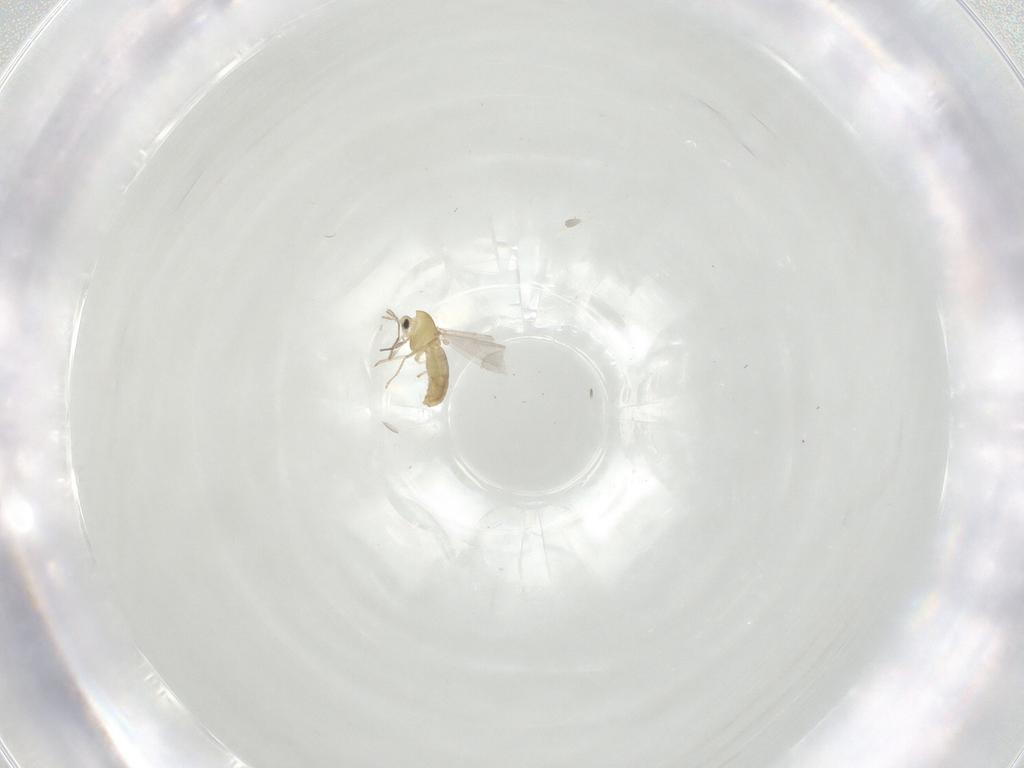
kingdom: Animalia
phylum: Arthropoda
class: Insecta
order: Diptera
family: Chironomidae
